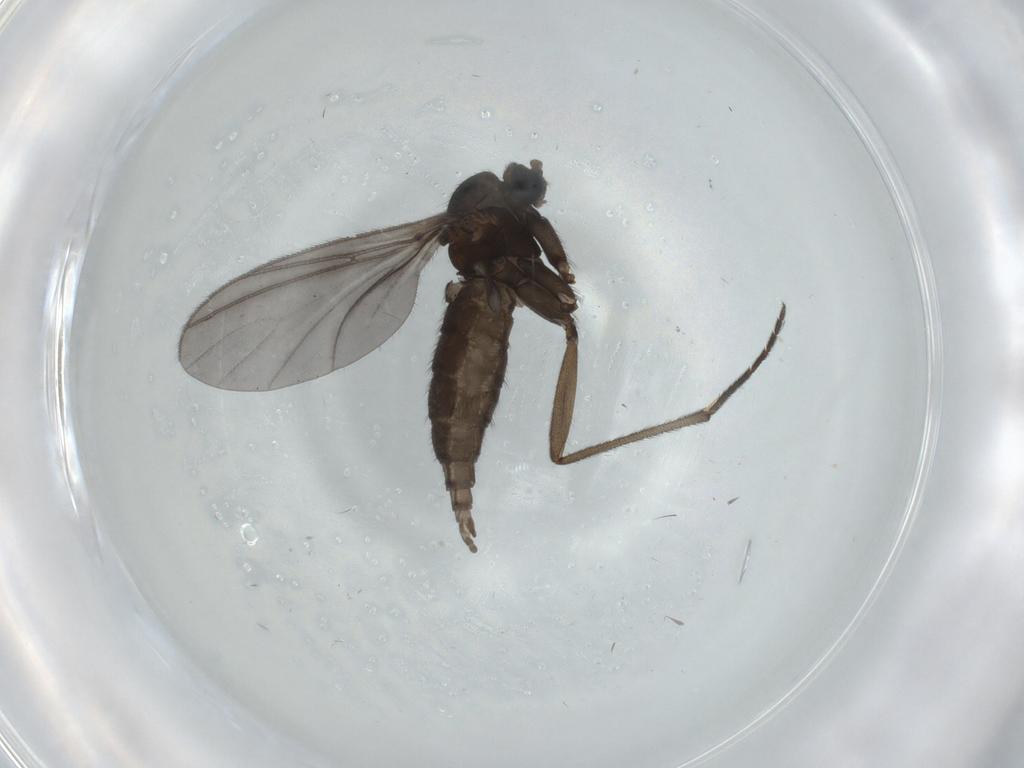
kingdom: Animalia
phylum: Arthropoda
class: Insecta
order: Diptera
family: Sciaridae
